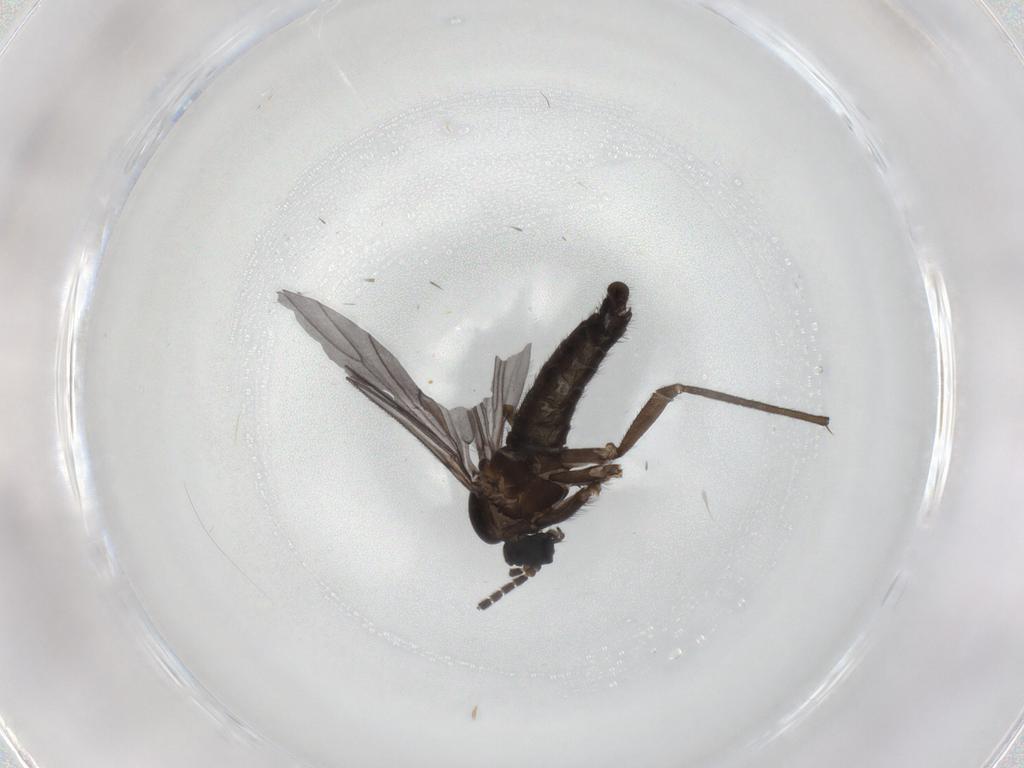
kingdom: Animalia
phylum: Arthropoda
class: Insecta
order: Diptera
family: Sciaridae
